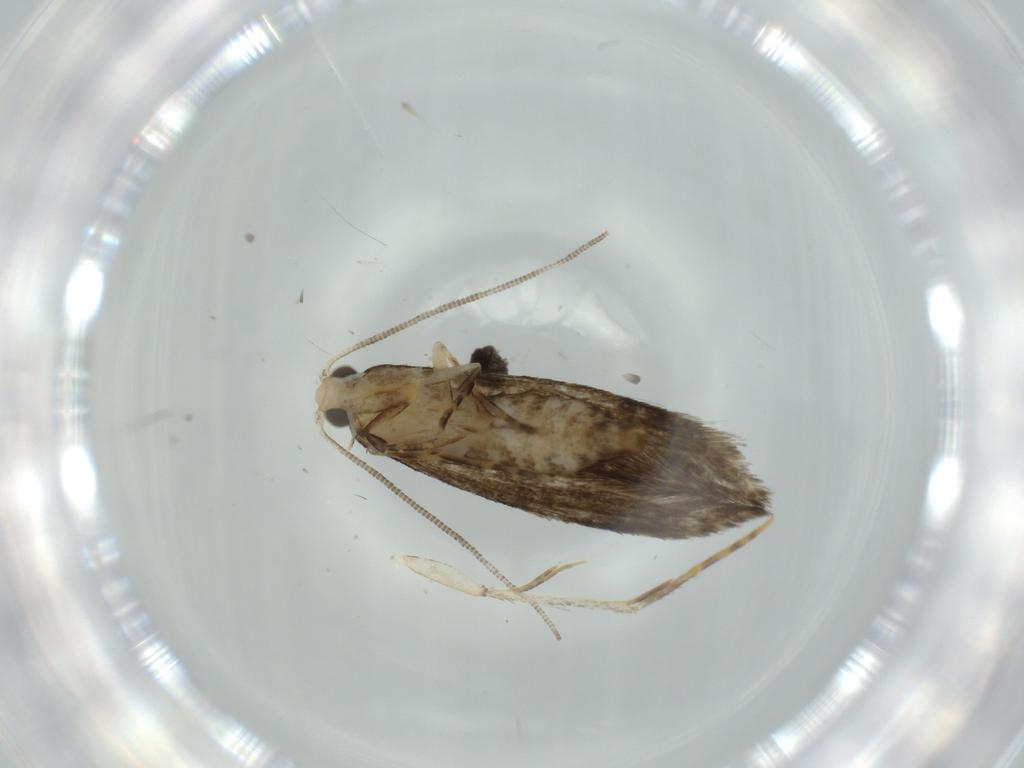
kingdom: Animalia
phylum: Arthropoda
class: Insecta
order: Lepidoptera
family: Meessiidae
